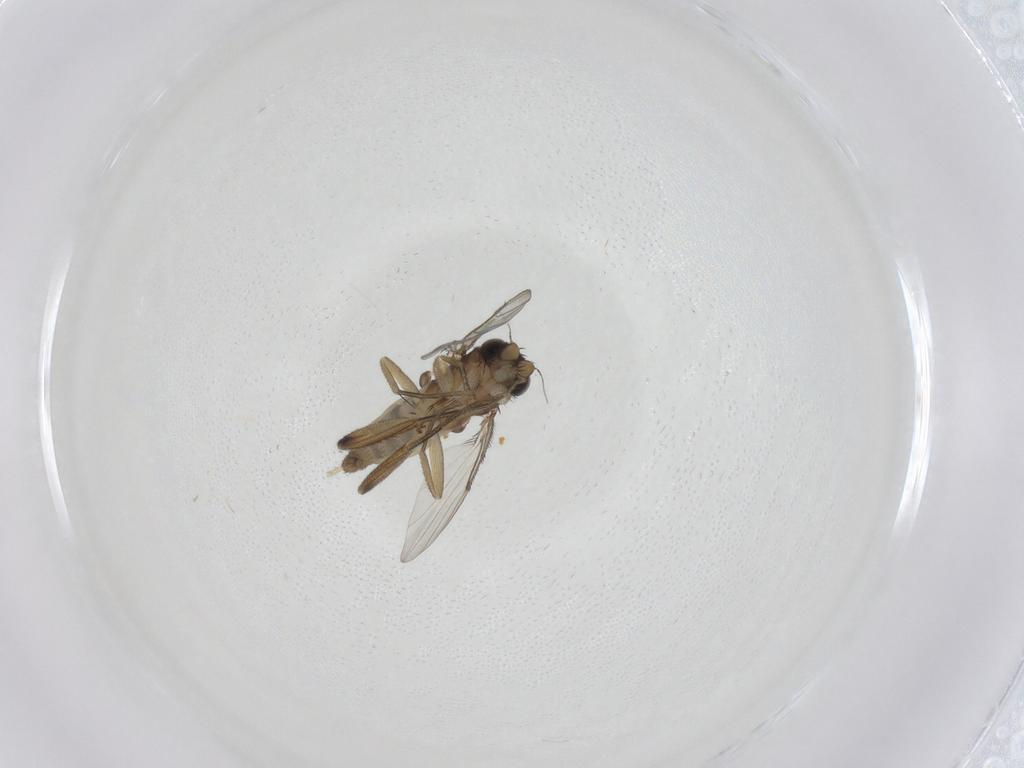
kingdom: Animalia
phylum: Arthropoda
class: Insecta
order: Diptera
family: Phoridae
